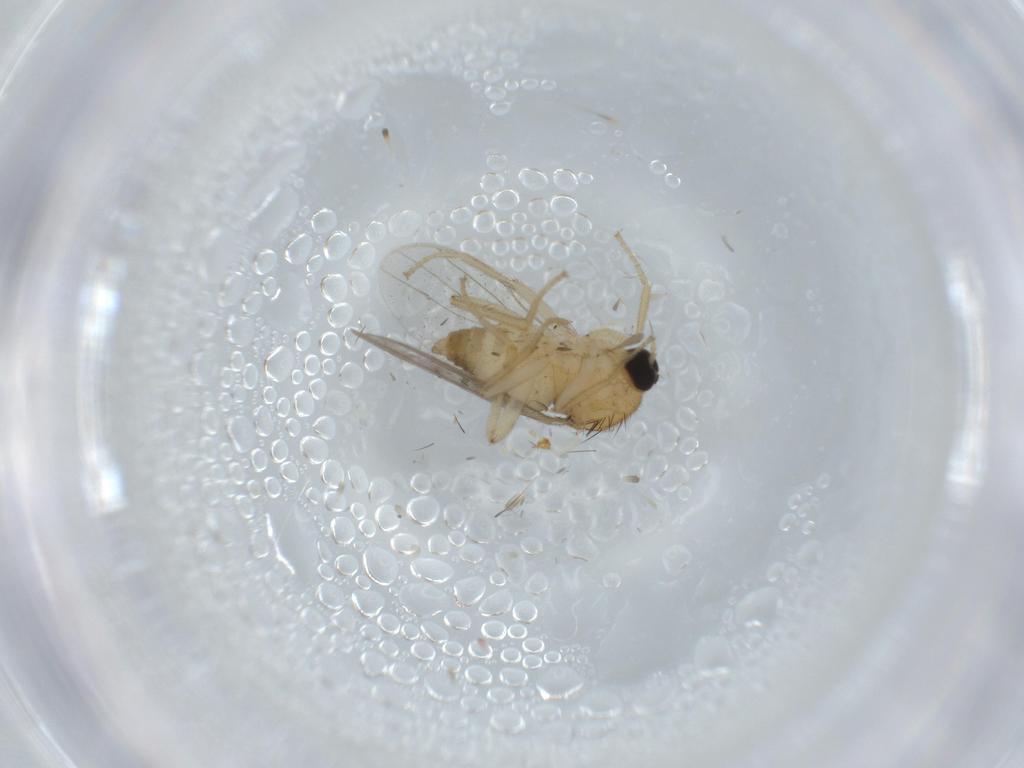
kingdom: Animalia
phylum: Arthropoda
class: Insecta
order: Diptera
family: Hybotidae
